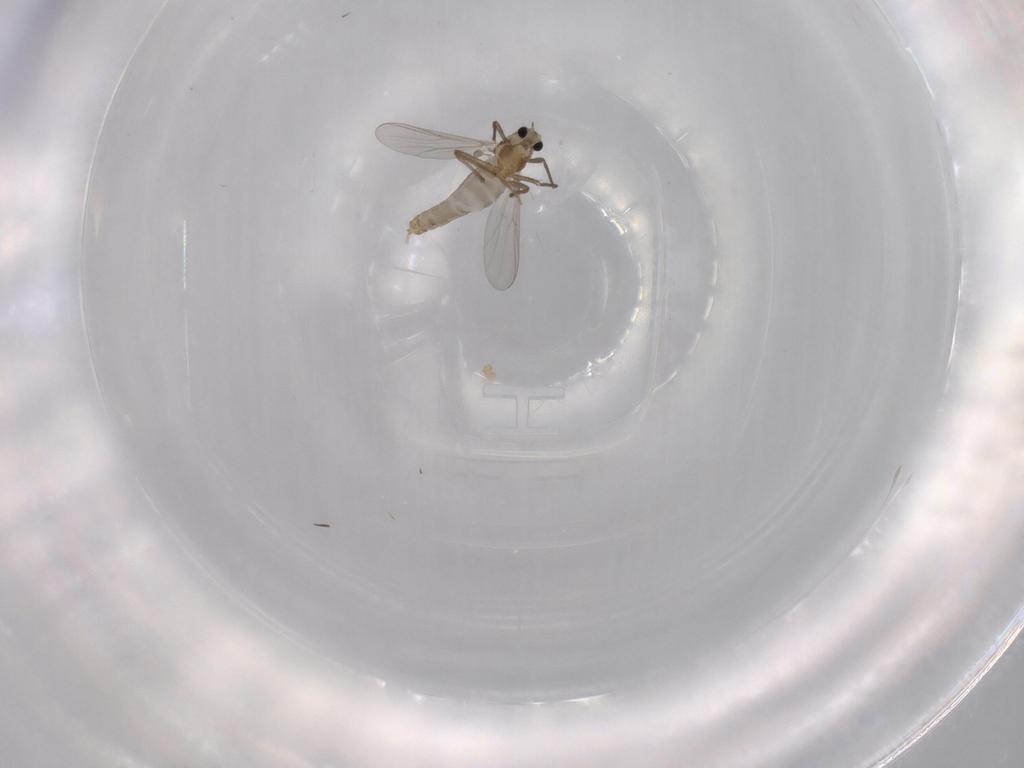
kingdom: Animalia
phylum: Arthropoda
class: Insecta
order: Diptera
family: Chironomidae
